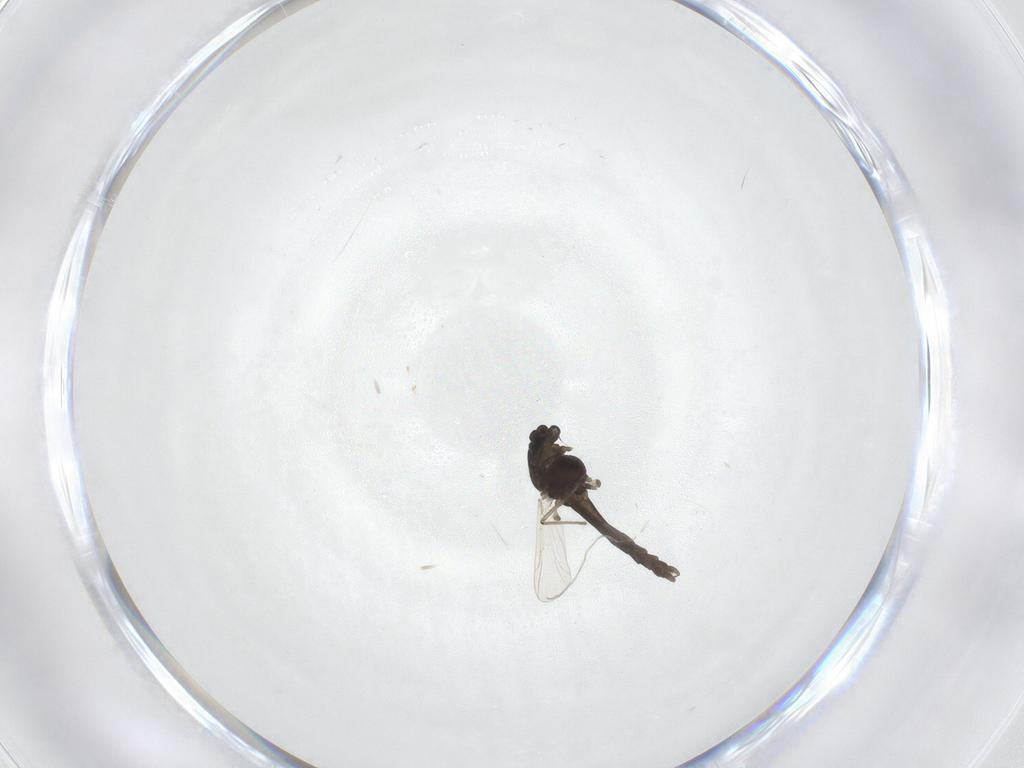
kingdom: Animalia
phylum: Arthropoda
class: Insecta
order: Diptera
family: Chironomidae
